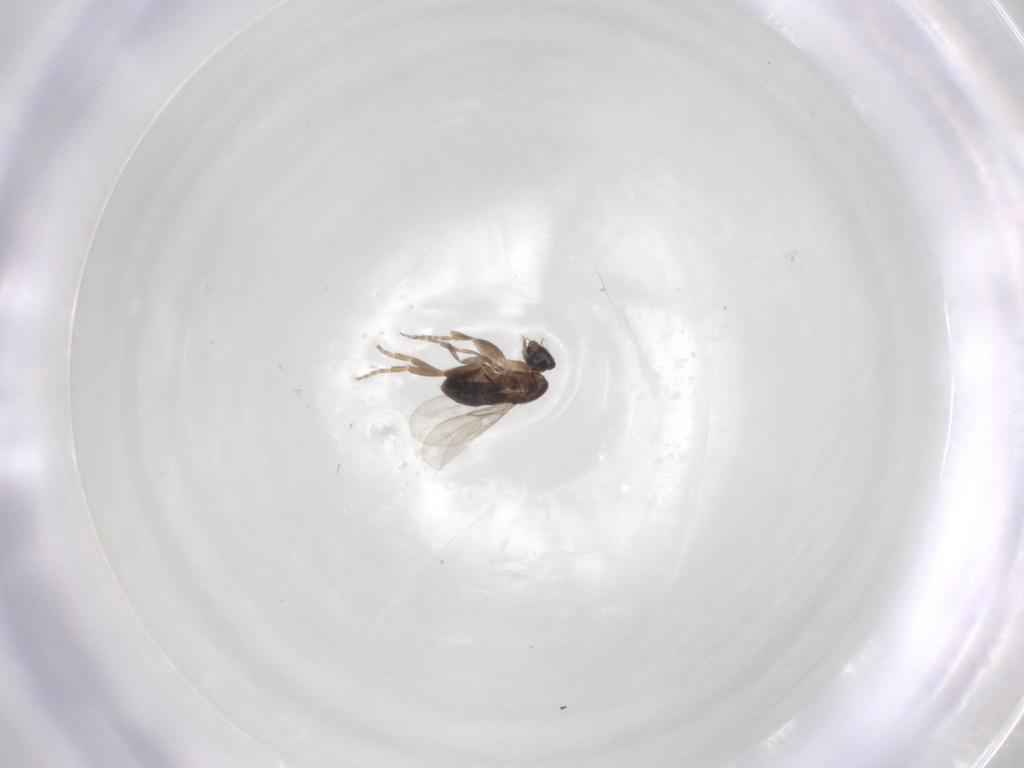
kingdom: Animalia
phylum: Arthropoda
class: Insecta
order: Diptera
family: Phoridae
